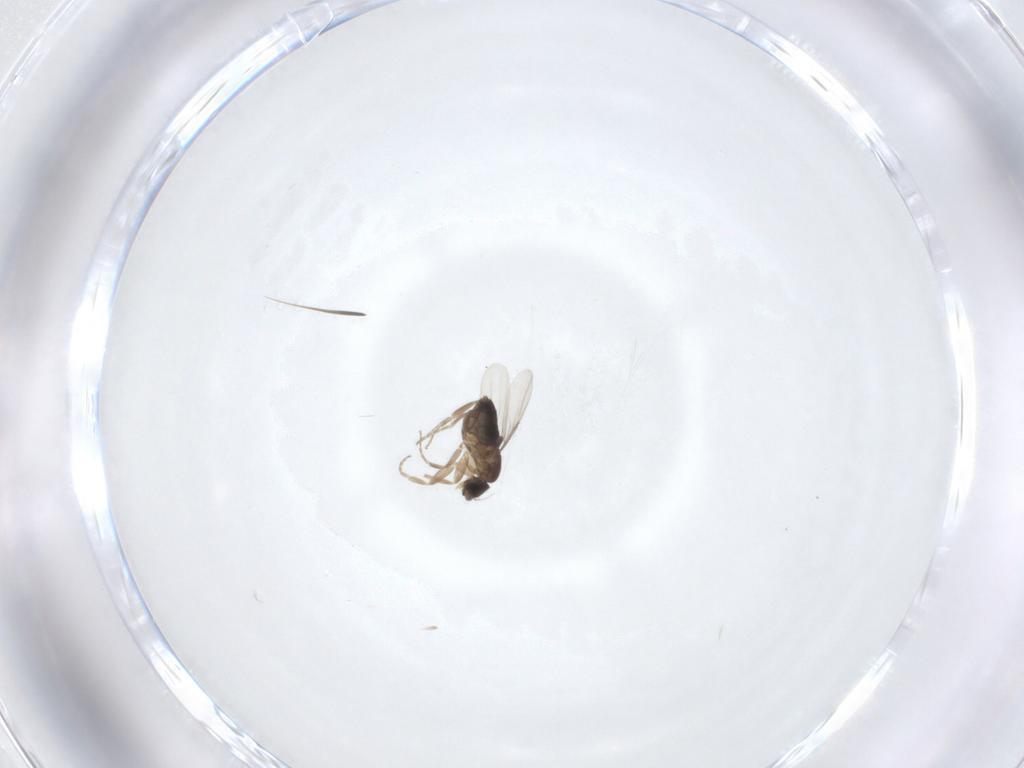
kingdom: Animalia
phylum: Arthropoda
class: Insecta
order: Diptera
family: Phoridae
